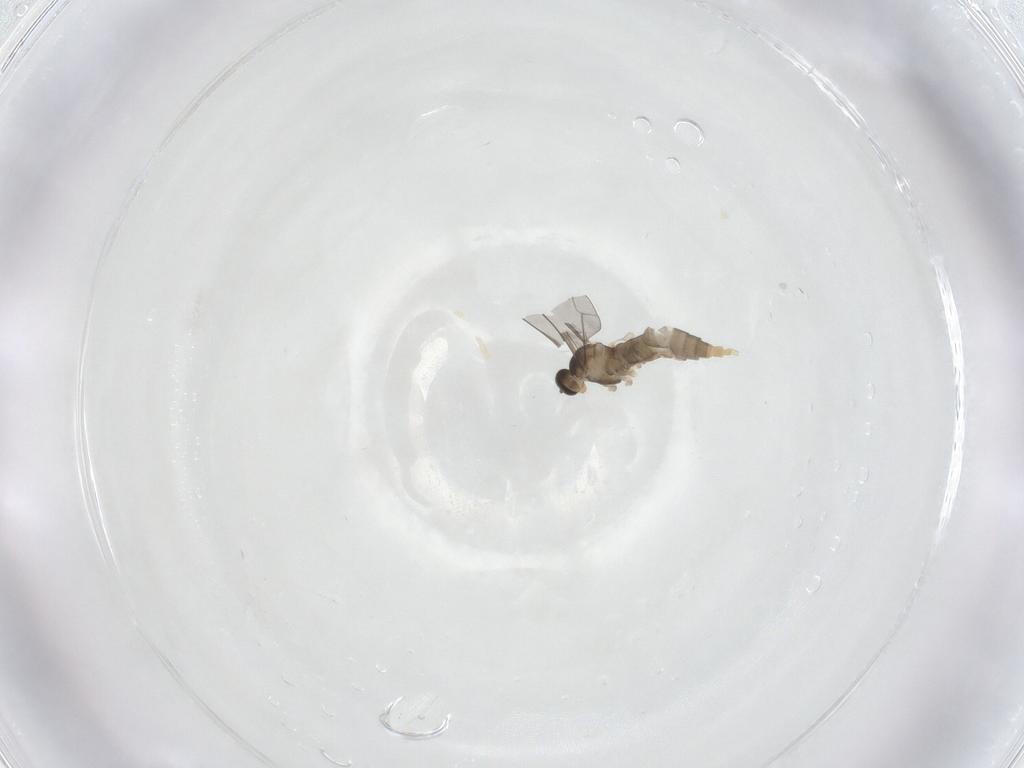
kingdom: Animalia
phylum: Arthropoda
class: Insecta
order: Diptera
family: Cecidomyiidae
